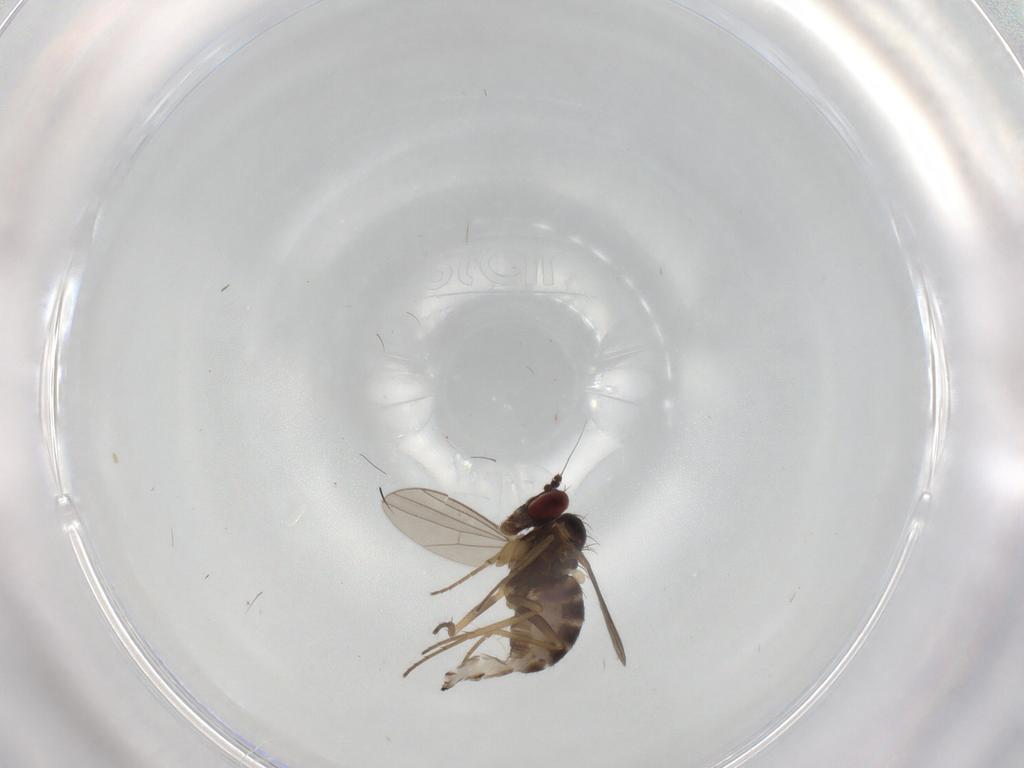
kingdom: Animalia
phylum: Arthropoda
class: Insecta
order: Diptera
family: Dolichopodidae
